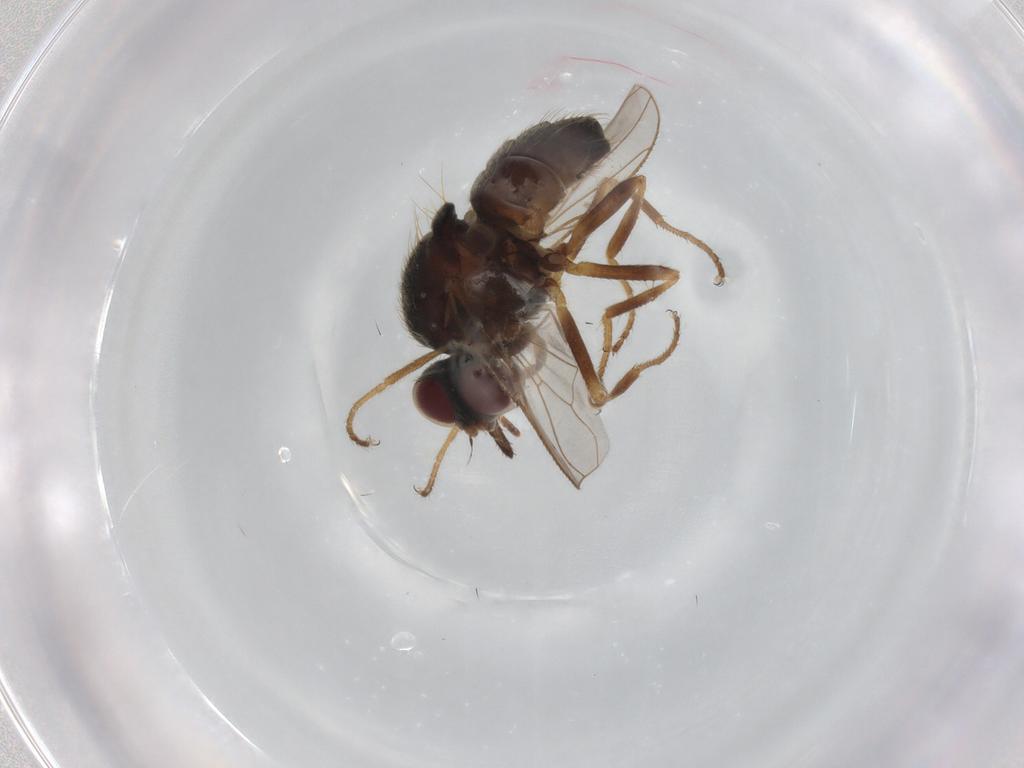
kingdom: Animalia
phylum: Arthropoda
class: Insecta
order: Diptera
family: Muscidae
